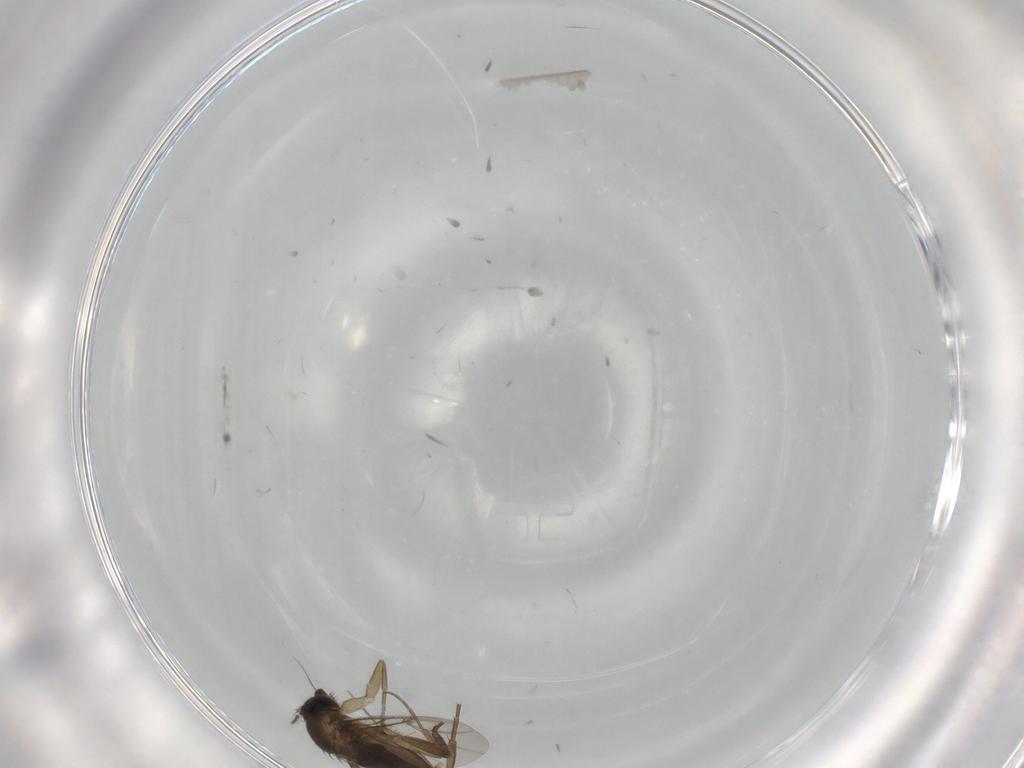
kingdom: Animalia
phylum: Arthropoda
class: Insecta
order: Diptera
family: Phoridae
